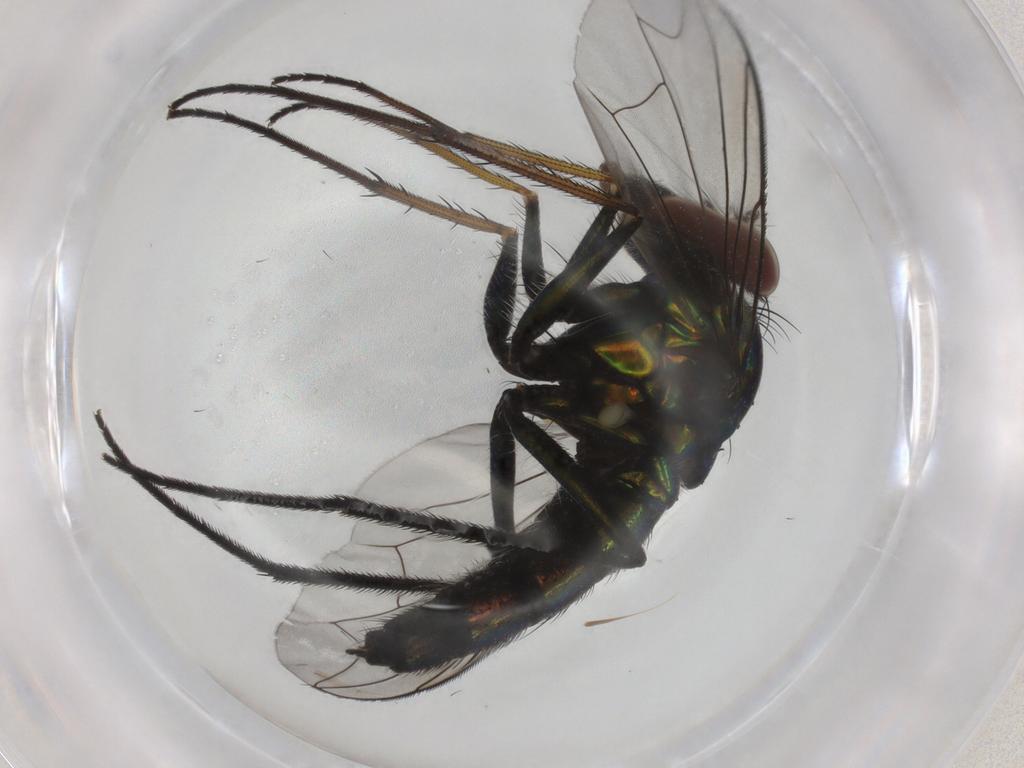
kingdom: Animalia
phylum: Arthropoda
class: Insecta
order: Diptera
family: Dolichopodidae
